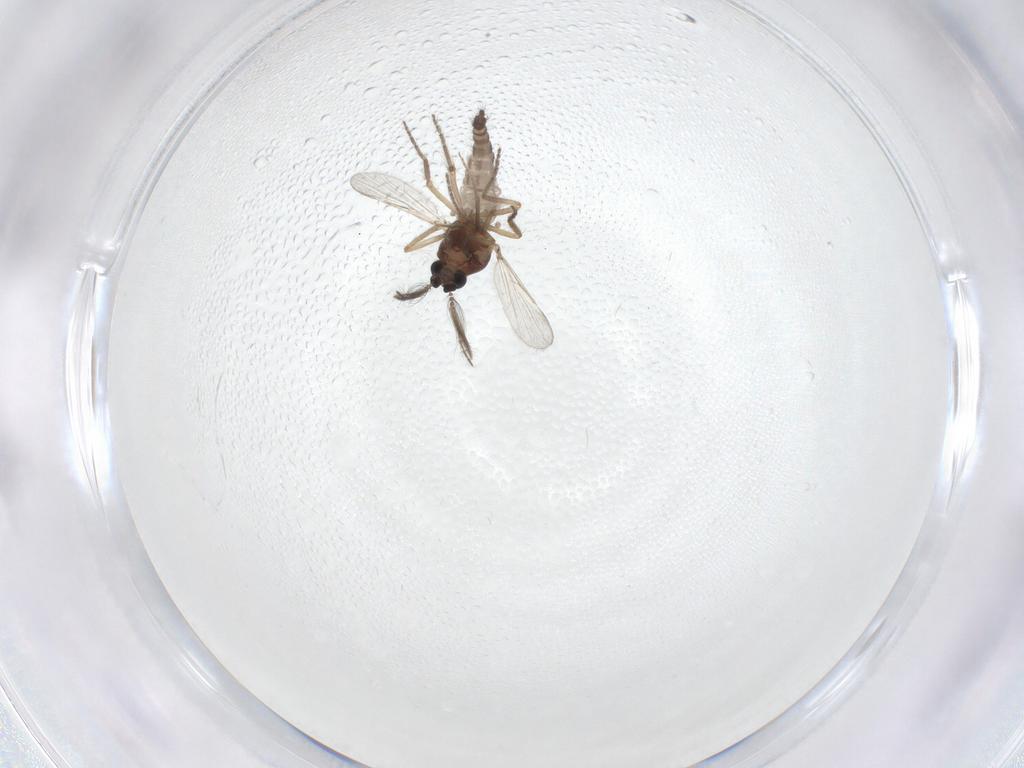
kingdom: Animalia
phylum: Arthropoda
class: Insecta
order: Diptera
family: Ceratopogonidae
